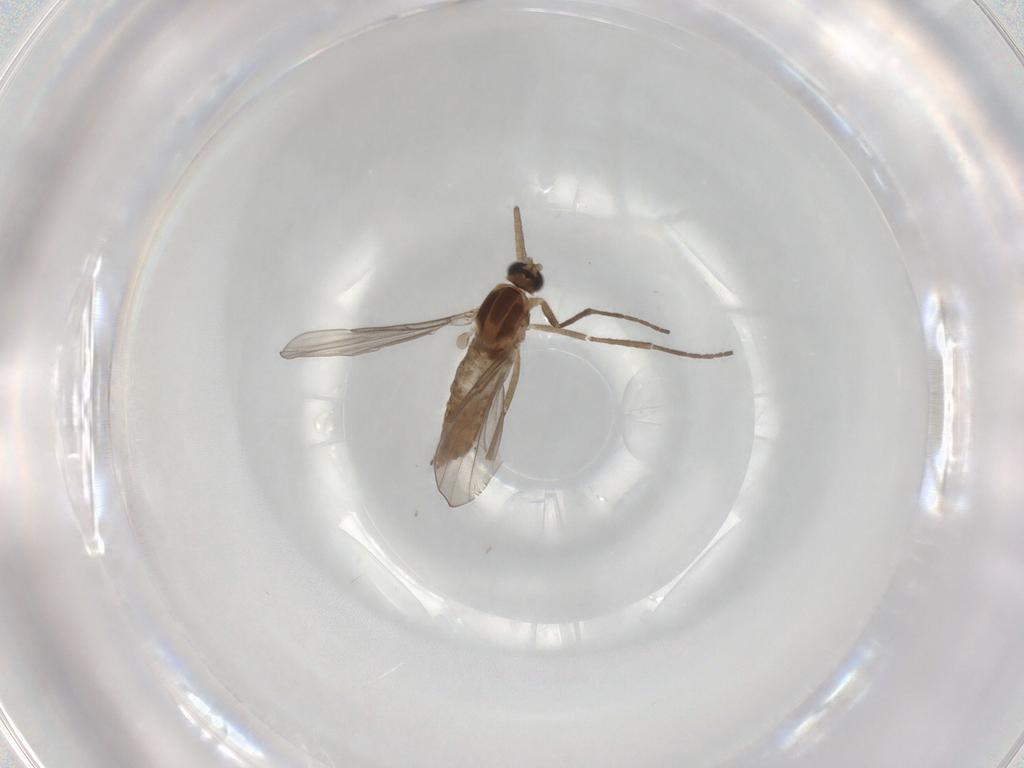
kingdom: Animalia
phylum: Arthropoda
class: Insecta
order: Diptera
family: Cecidomyiidae
